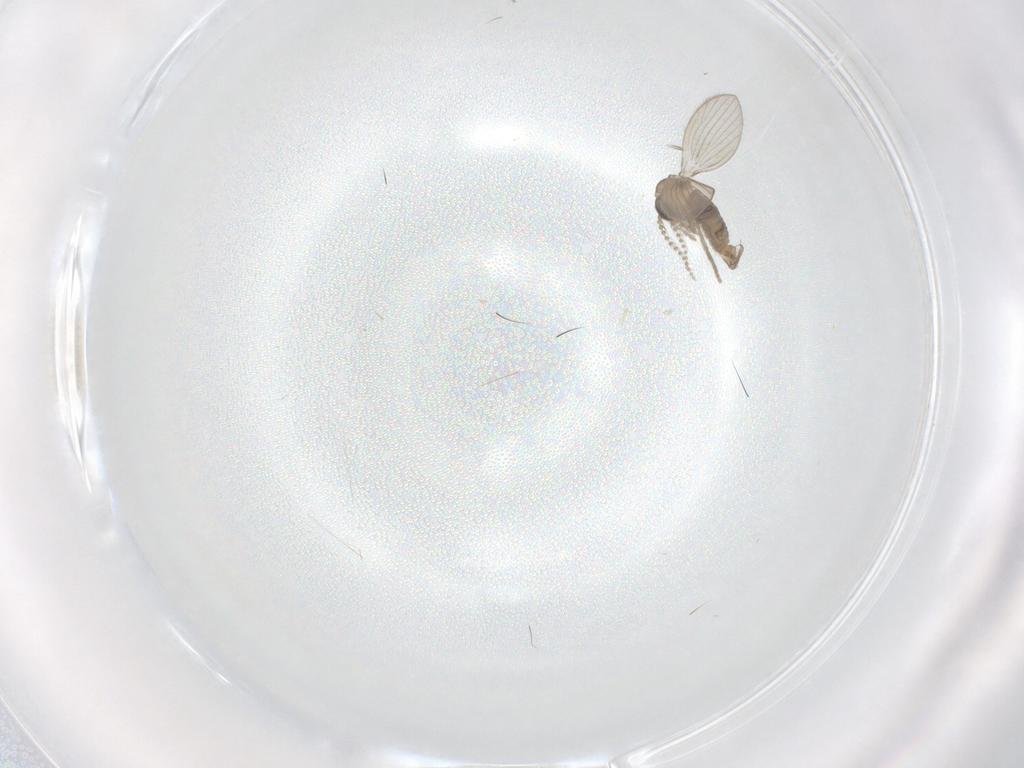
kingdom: Animalia
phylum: Arthropoda
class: Insecta
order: Diptera
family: Psychodidae
